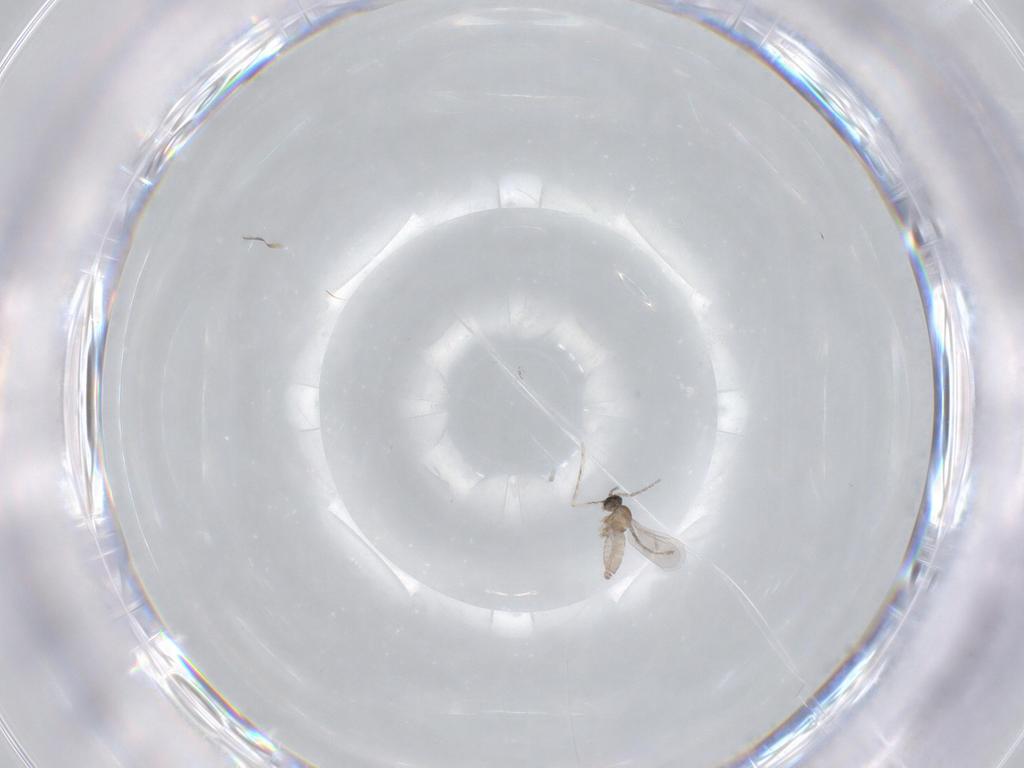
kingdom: Animalia
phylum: Arthropoda
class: Insecta
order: Diptera
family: Cecidomyiidae
